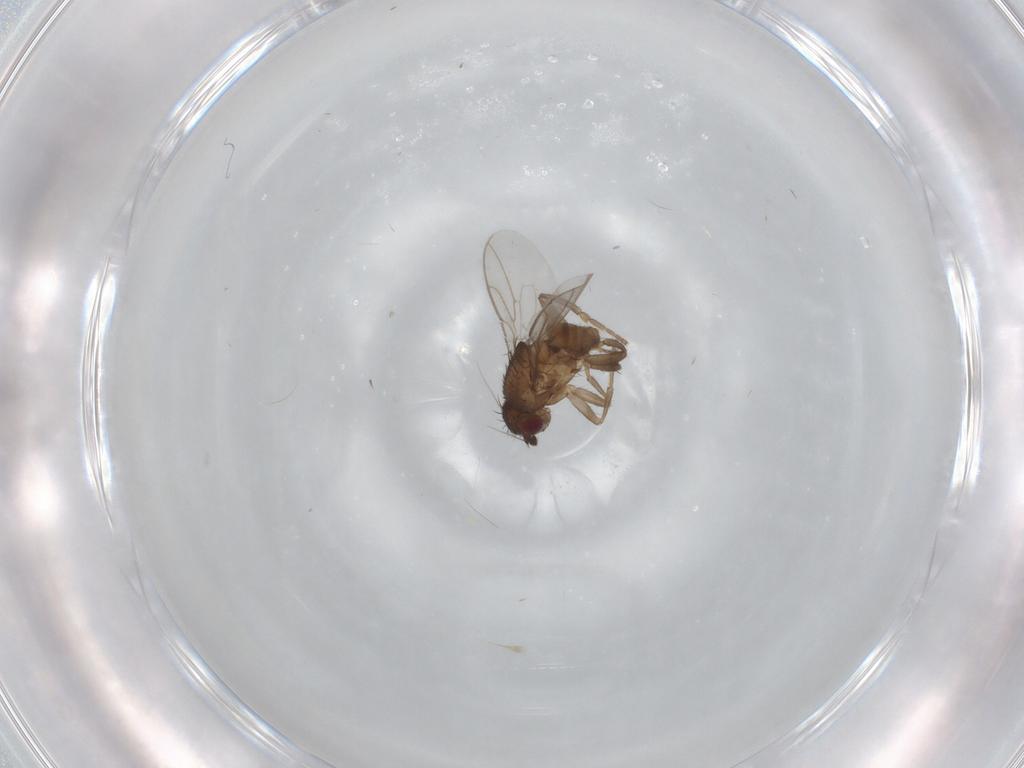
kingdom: Animalia
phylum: Arthropoda
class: Insecta
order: Diptera
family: Sphaeroceridae
